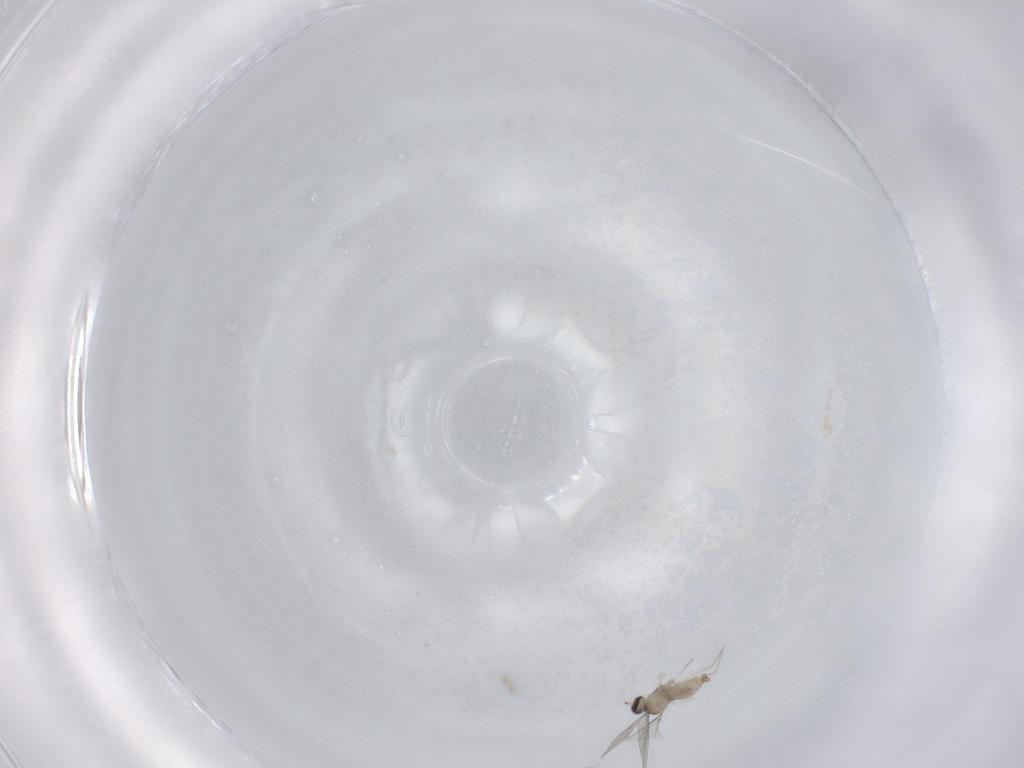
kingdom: Animalia
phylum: Arthropoda
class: Insecta
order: Diptera
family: Cecidomyiidae
